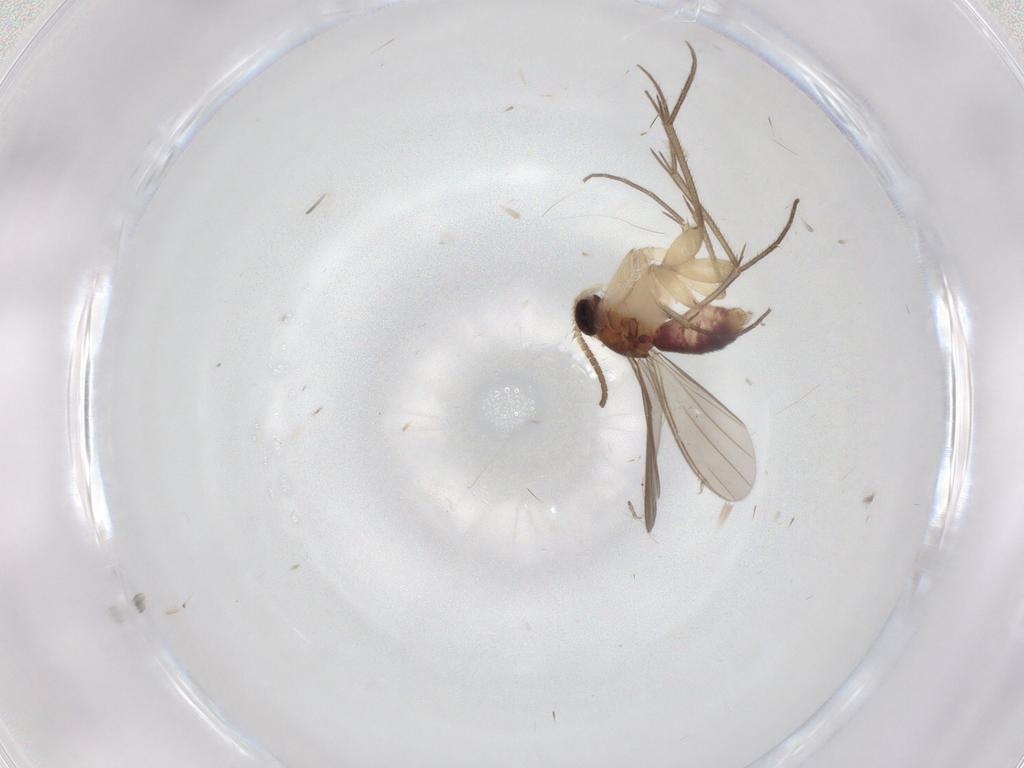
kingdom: Animalia
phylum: Arthropoda
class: Insecta
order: Diptera
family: Mycetophilidae
